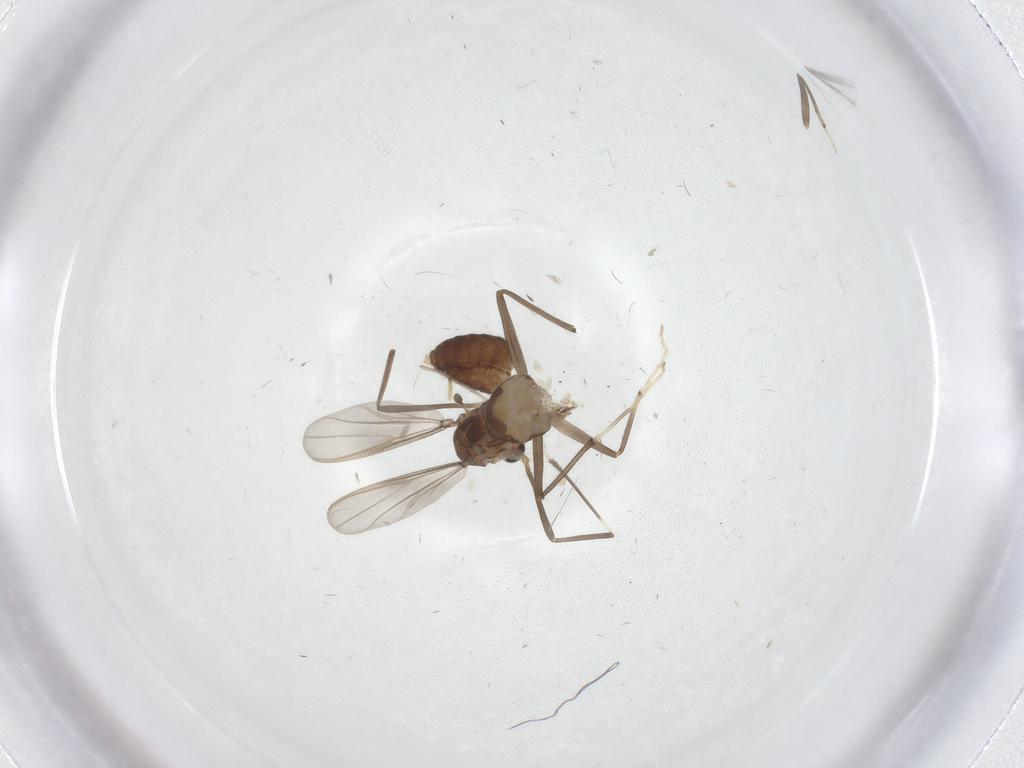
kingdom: Animalia
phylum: Arthropoda
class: Insecta
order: Diptera
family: Chironomidae
